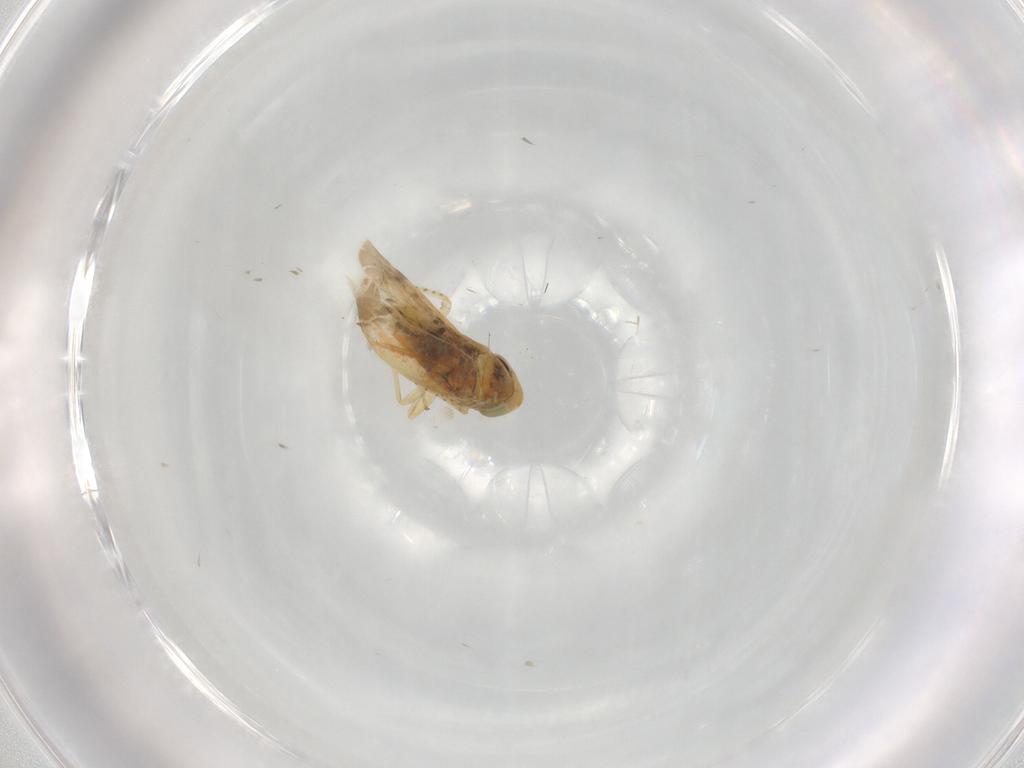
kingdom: Animalia
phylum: Arthropoda
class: Insecta
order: Hemiptera
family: Cicadellidae
